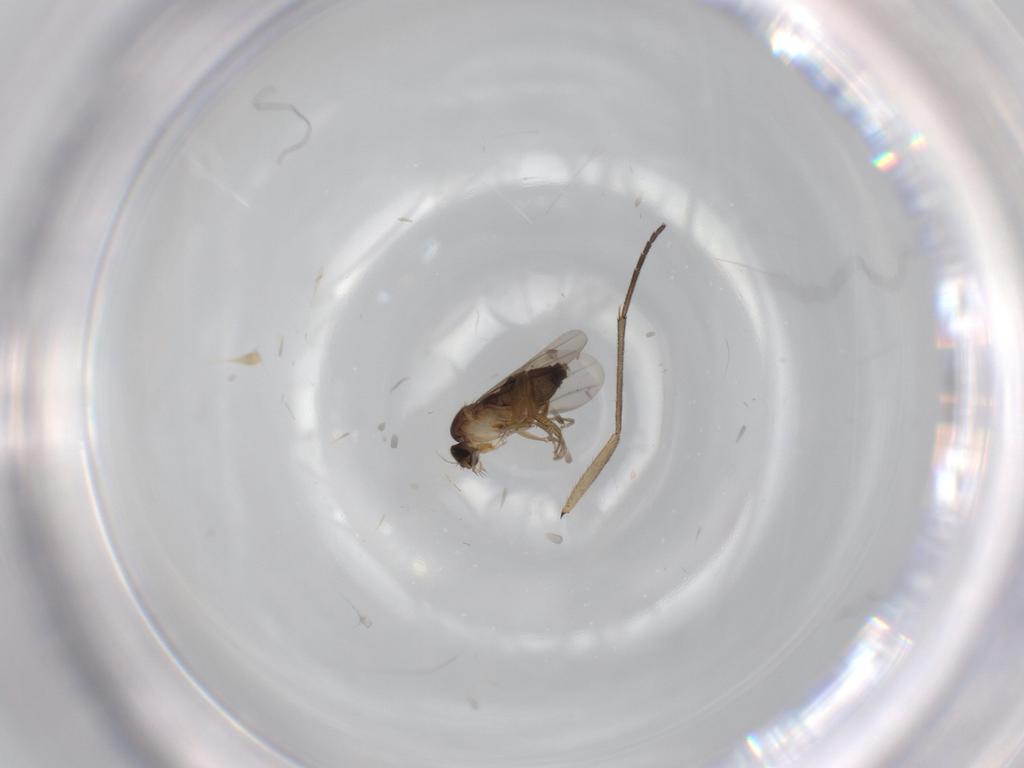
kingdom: Animalia
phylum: Arthropoda
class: Insecta
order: Diptera
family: Phoridae
